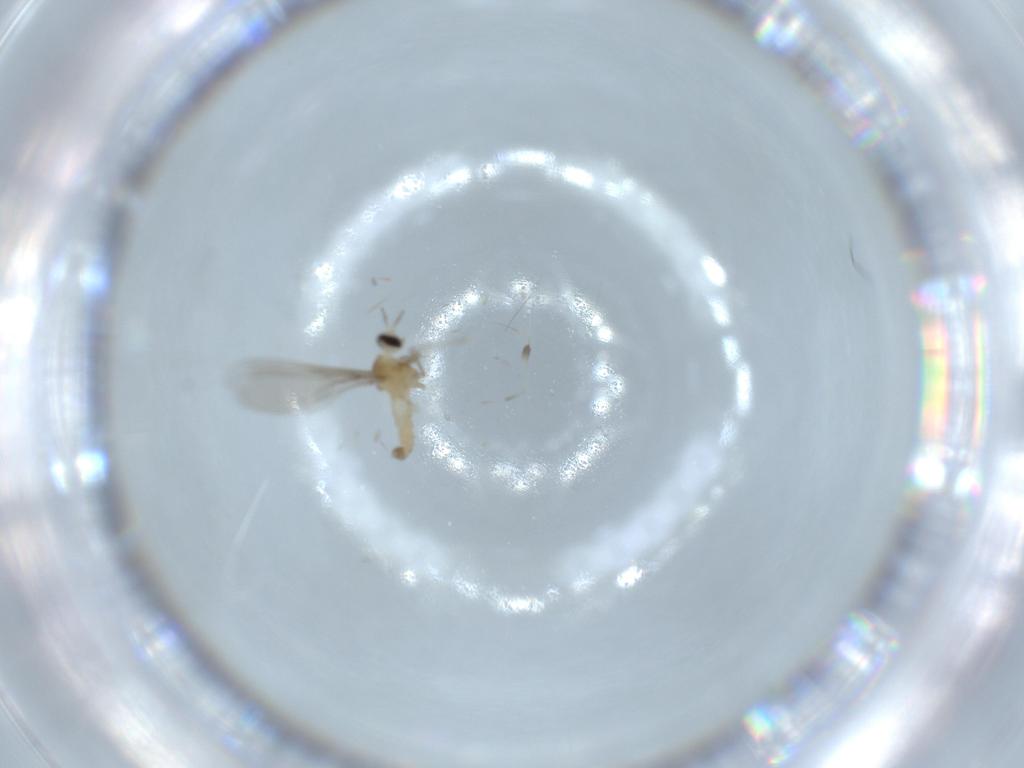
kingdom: Animalia
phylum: Arthropoda
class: Insecta
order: Diptera
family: Cecidomyiidae
